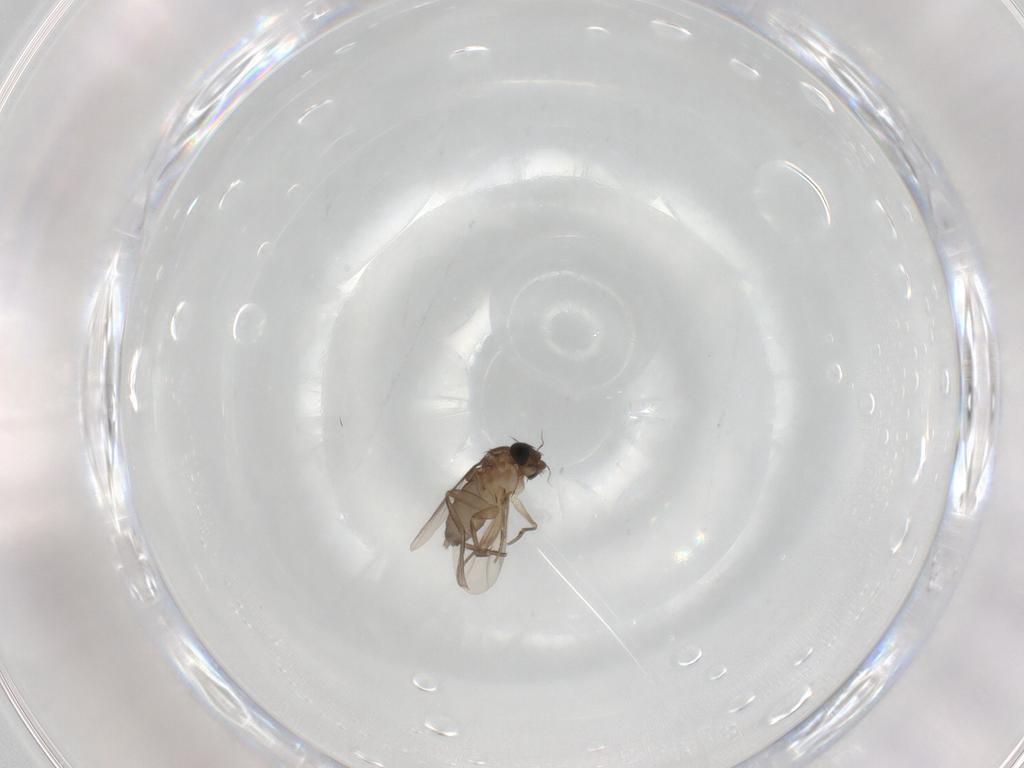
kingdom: Animalia
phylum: Arthropoda
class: Insecta
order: Diptera
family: Phoridae
